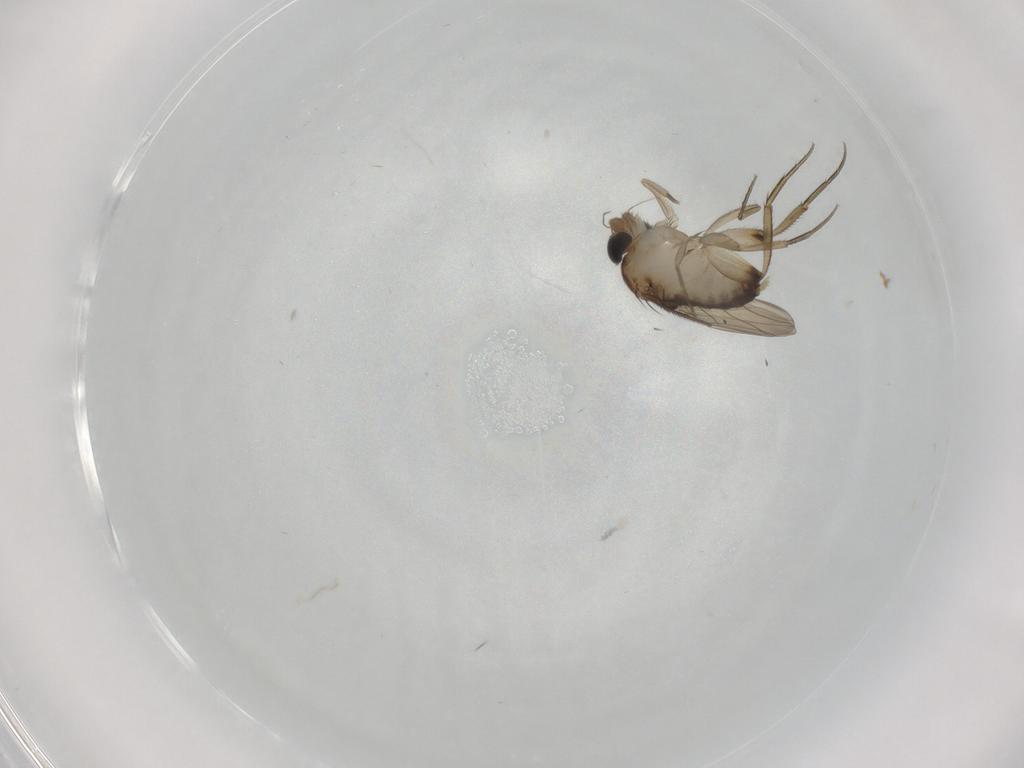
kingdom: Animalia
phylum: Arthropoda
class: Insecta
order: Diptera
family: Phoridae
